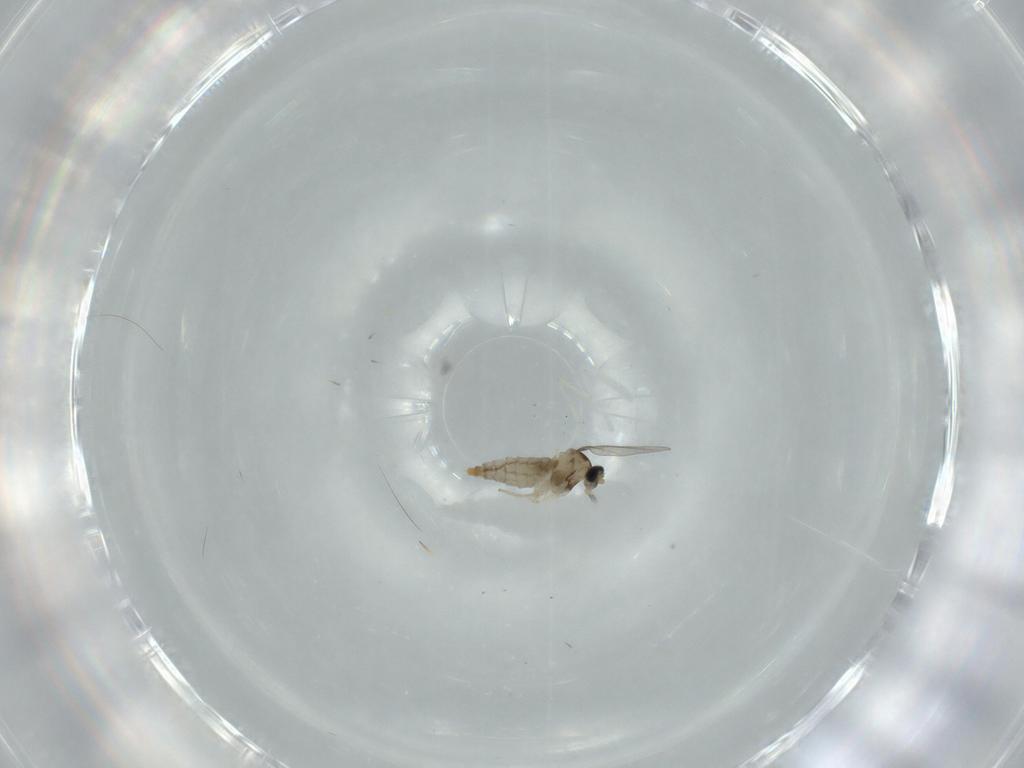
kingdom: Animalia
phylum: Arthropoda
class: Insecta
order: Diptera
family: Sciaridae
